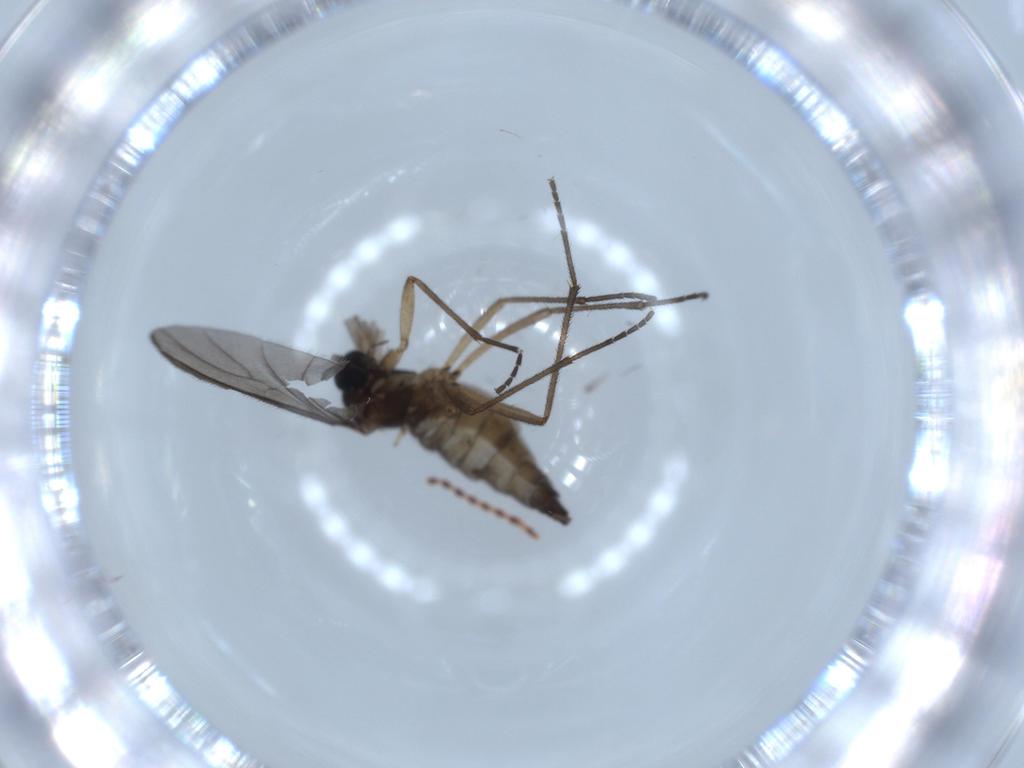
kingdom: Animalia
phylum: Arthropoda
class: Insecta
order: Diptera
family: Sciaridae
